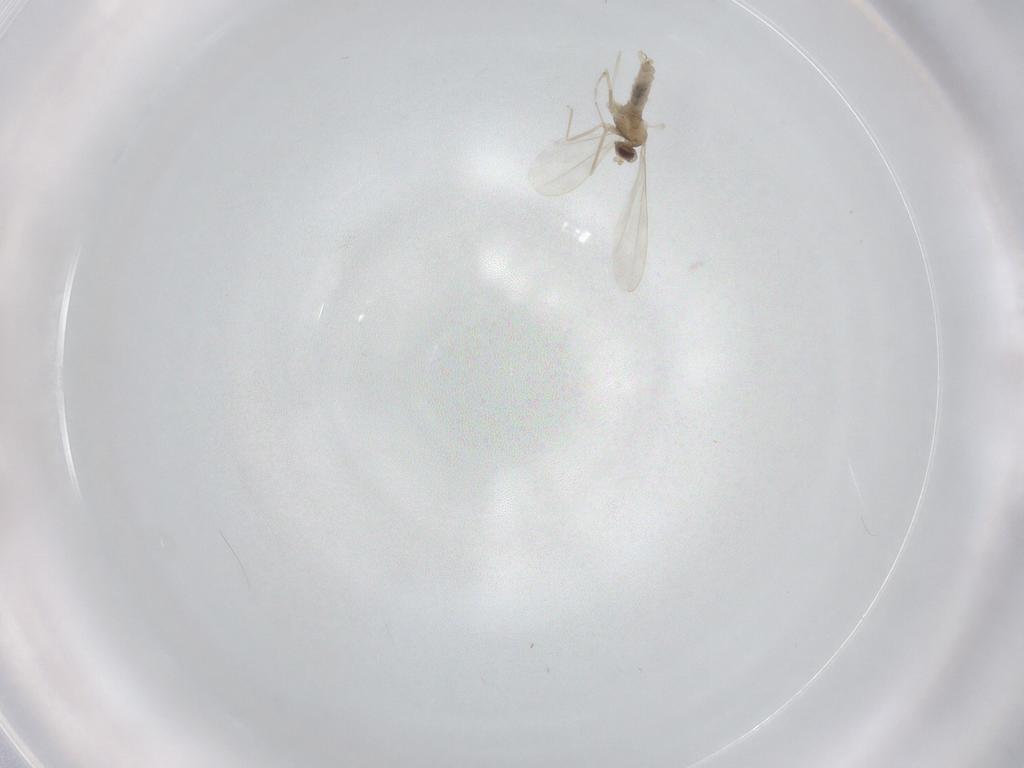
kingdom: Animalia
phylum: Arthropoda
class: Insecta
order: Diptera
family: Cecidomyiidae
